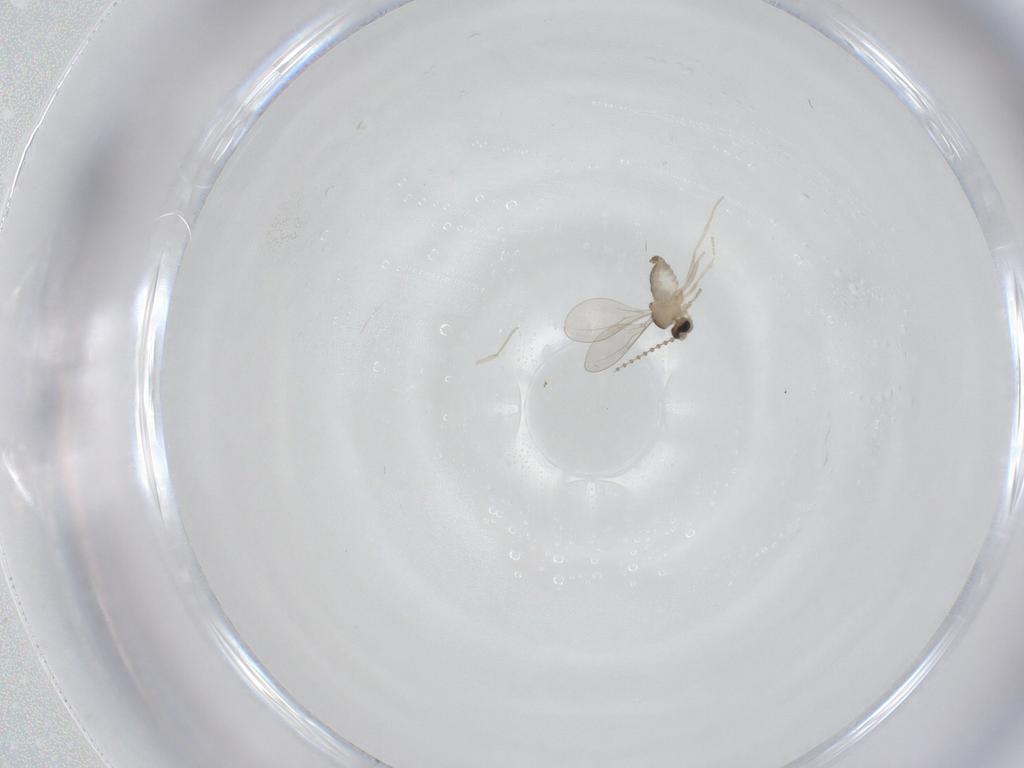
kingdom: Animalia
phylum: Arthropoda
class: Insecta
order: Diptera
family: Cecidomyiidae
